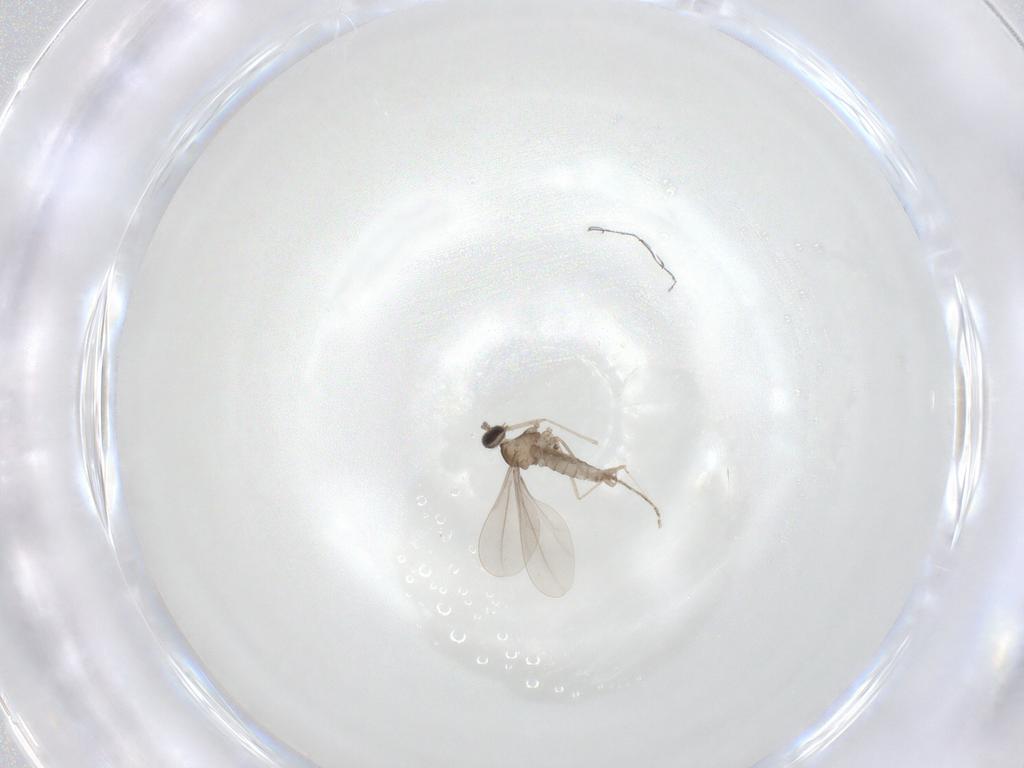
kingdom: Animalia
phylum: Arthropoda
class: Insecta
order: Diptera
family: Cecidomyiidae
